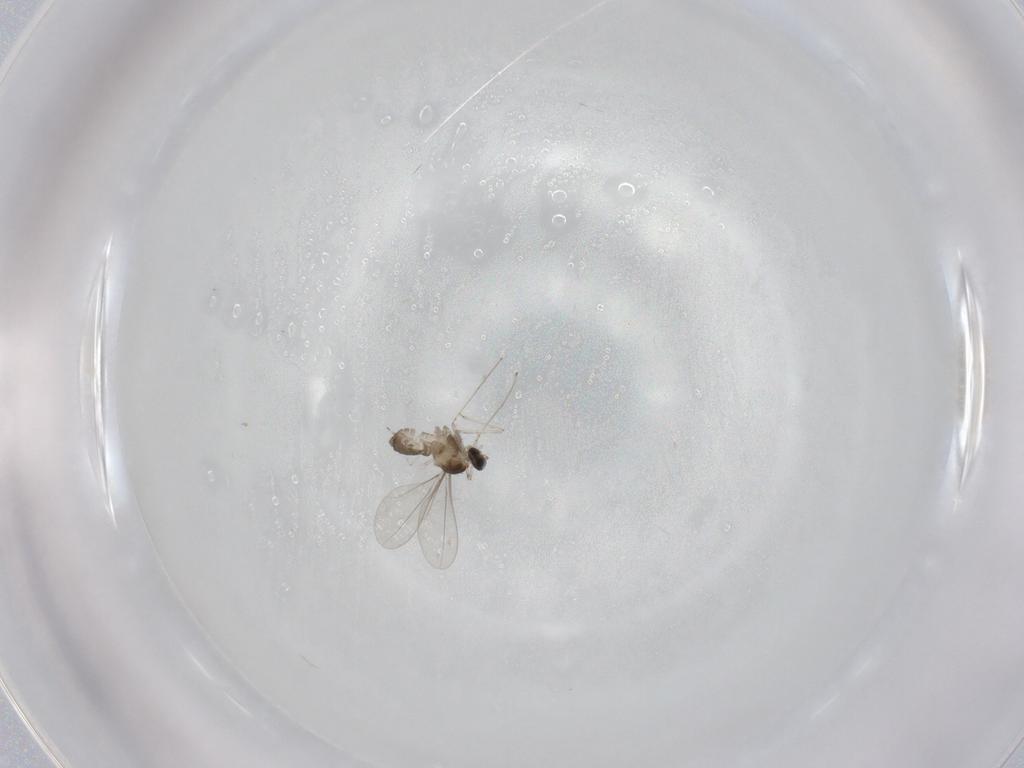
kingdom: Animalia
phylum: Arthropoda
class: Insecta
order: Diptera
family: Cecidomyiidae
